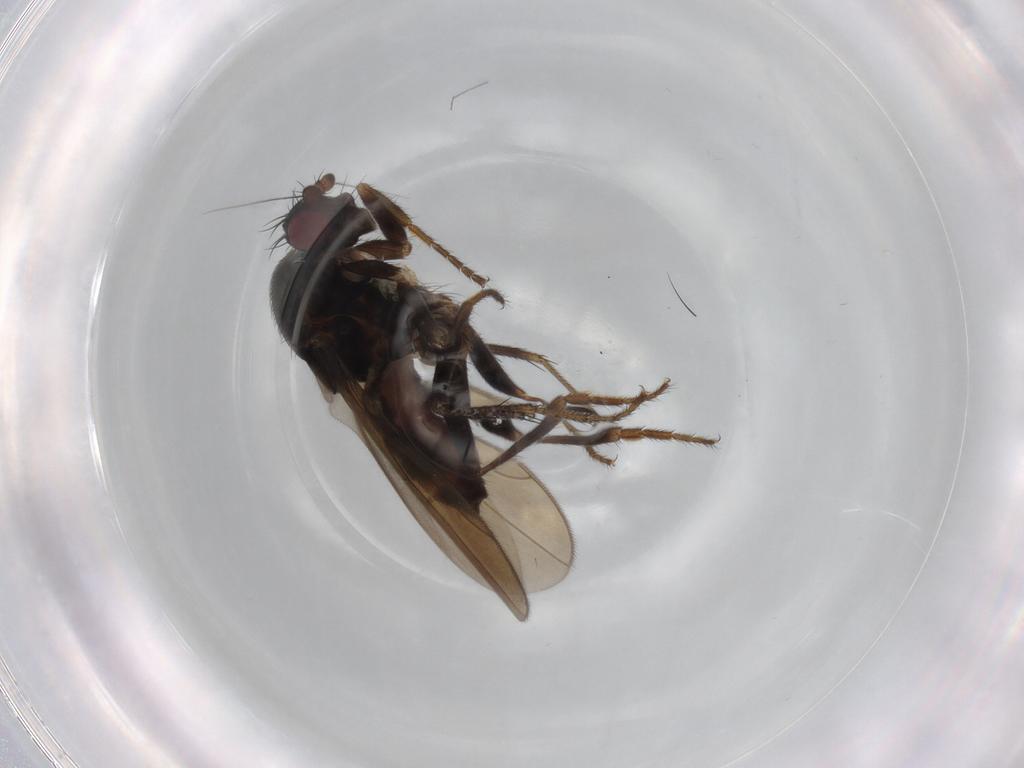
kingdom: Animalia
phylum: Arthropoda
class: Insecta
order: Diptera
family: Sphaeroceridae
